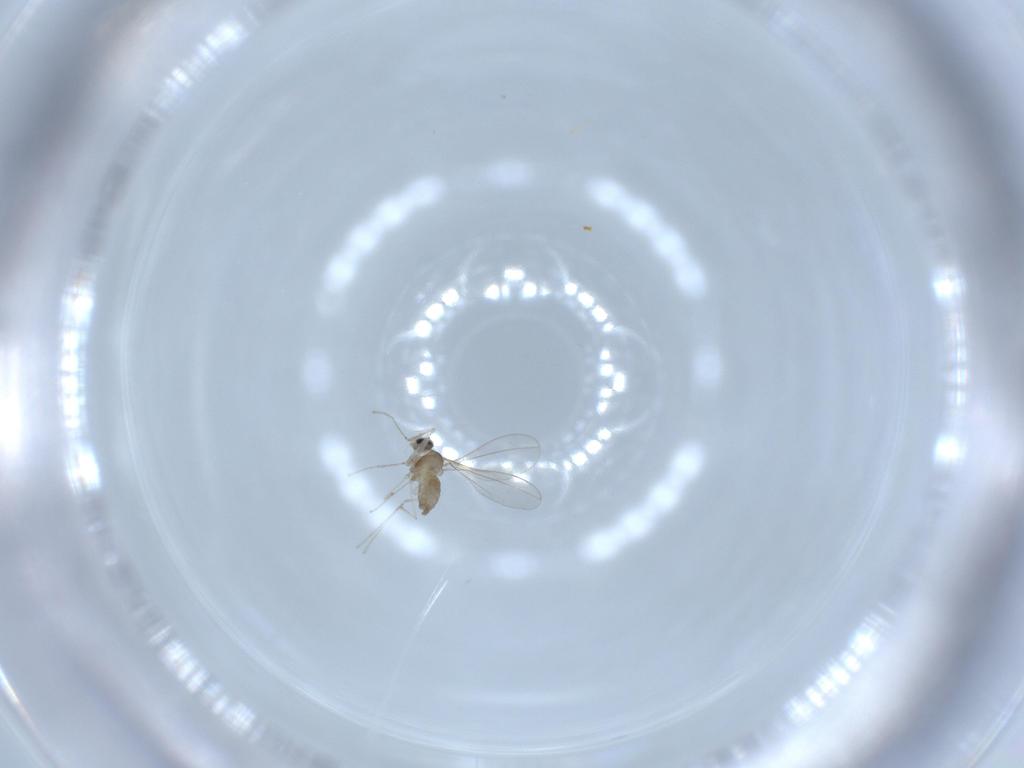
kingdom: Animalia
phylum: Arthropoda
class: Insecta
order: Diptera
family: Cecidomyiidae
